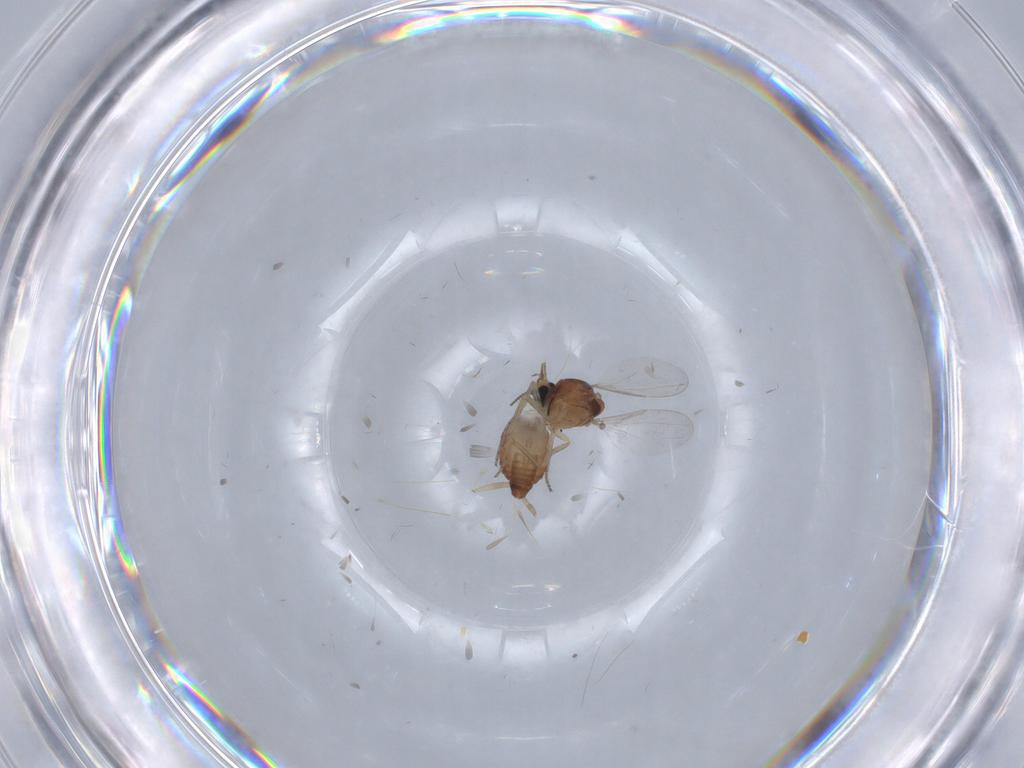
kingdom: Animalia
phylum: Arthropoda
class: Insecta
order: Diptera
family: Ceratopogonidae
